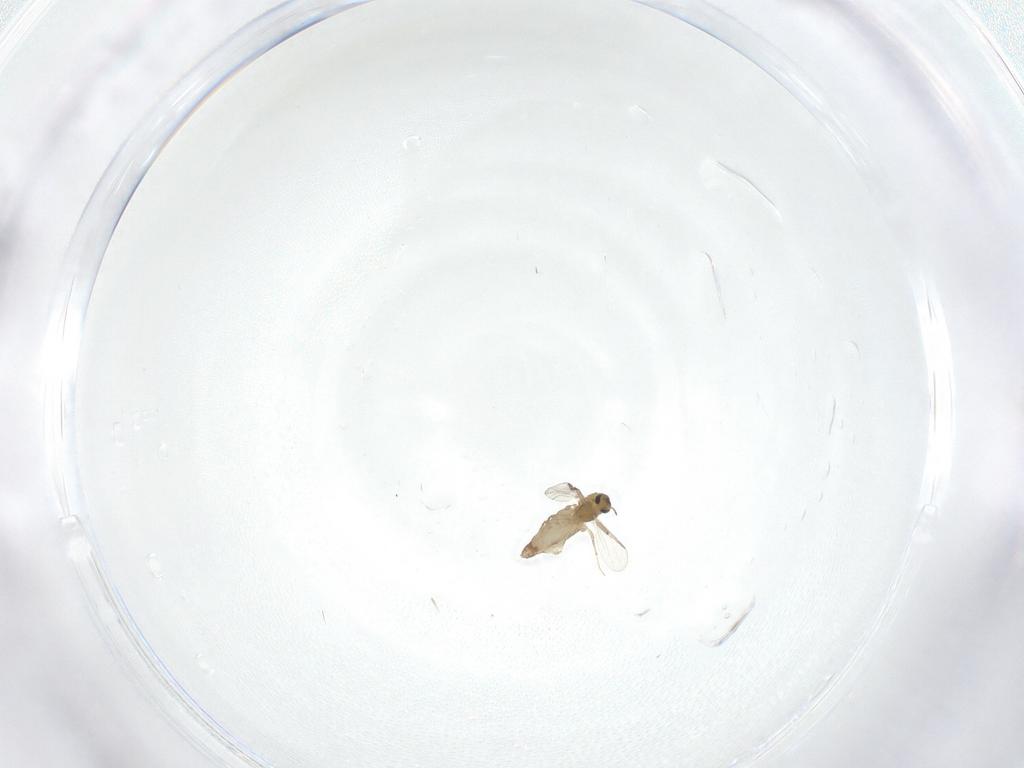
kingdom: Animalia
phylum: Arthropoda
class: Insecta
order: Diptera
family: Chironomidae
